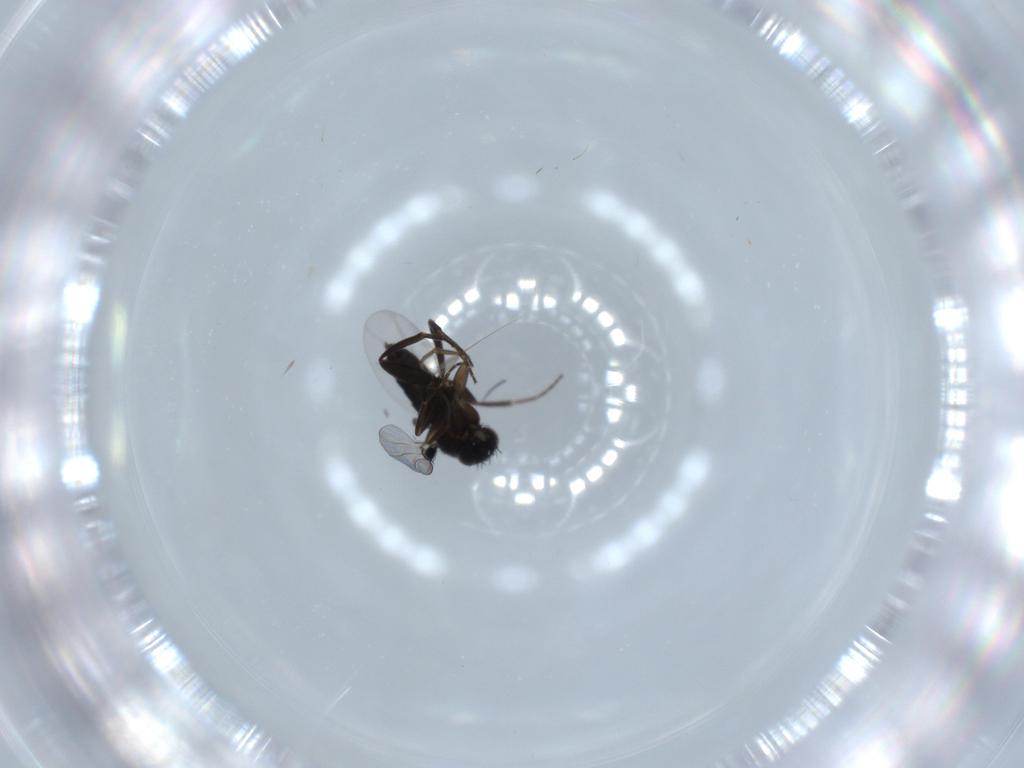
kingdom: Animalia
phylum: Arthropoda
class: Insecta
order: Diptera
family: Phoridae
